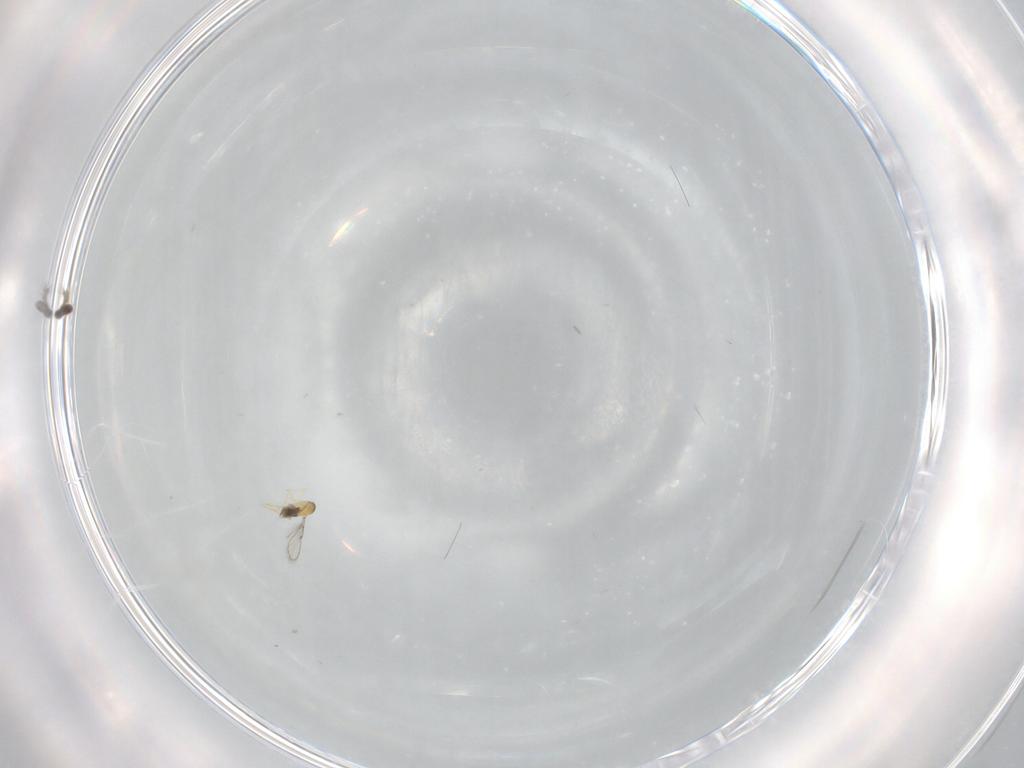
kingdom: Animalia
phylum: Arthropoda
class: Insecta
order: Hymenoptera
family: Trichogrammatidae
